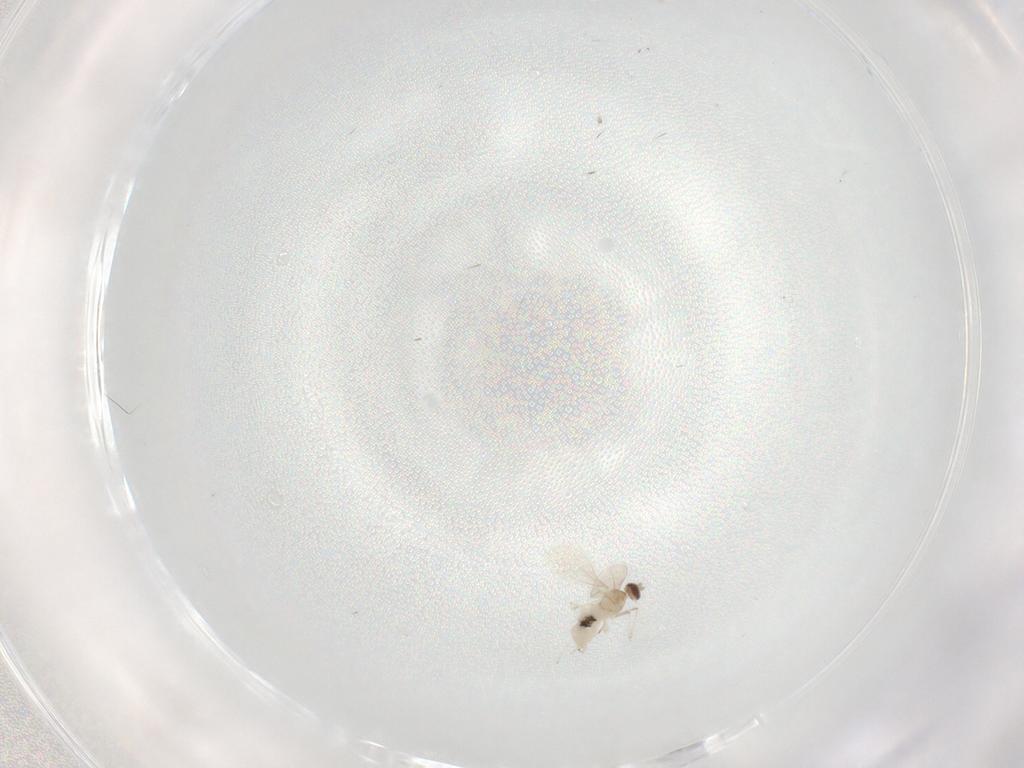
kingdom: Animalia
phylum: Arthropoda
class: Insecta
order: Diptera
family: Cecidomyiidae
